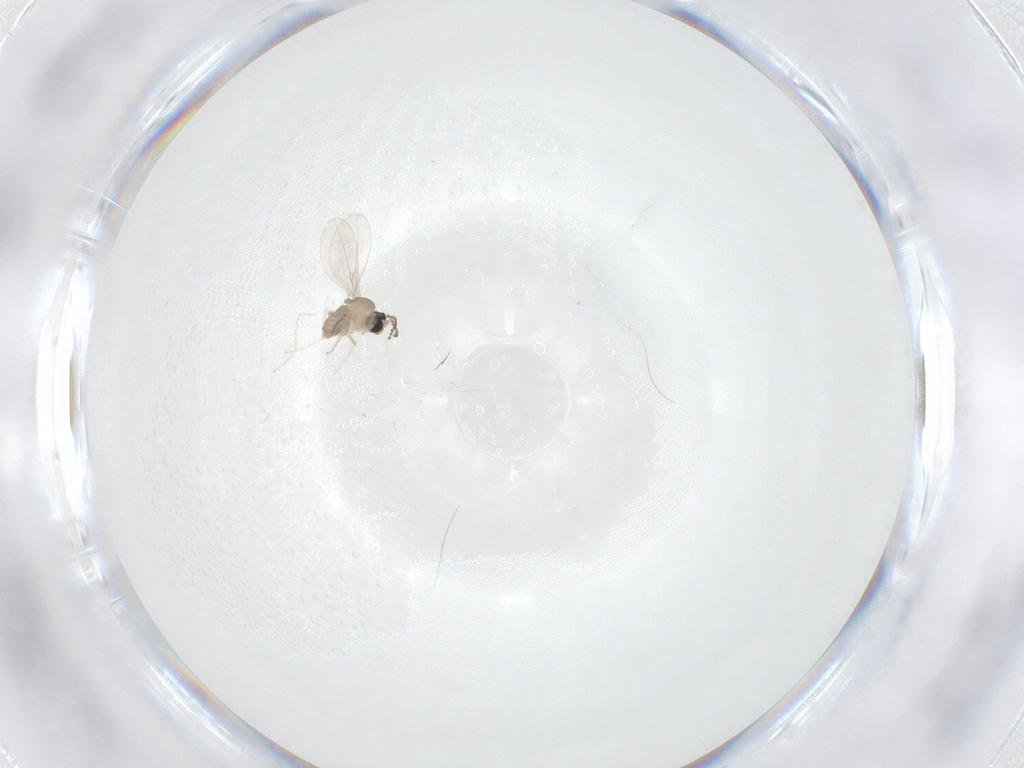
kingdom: Animalia
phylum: Arthropoda
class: Insecta
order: Diptera
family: Cecidomyiidae
